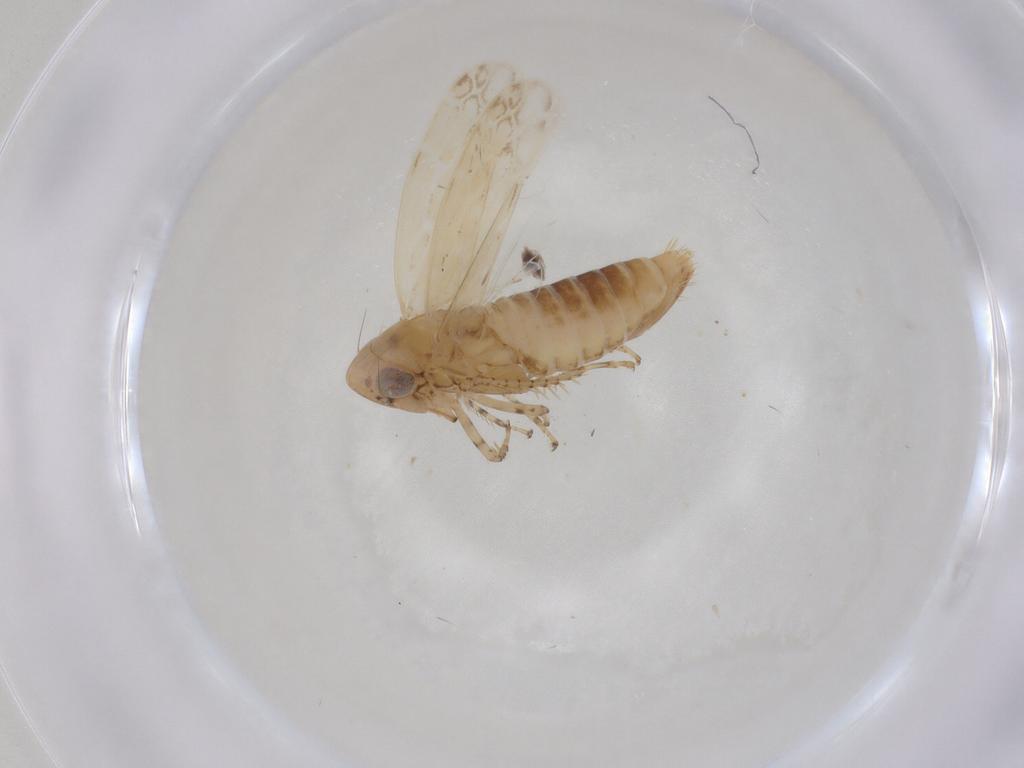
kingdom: Animalia
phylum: Arthropoda
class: Insecta
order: Hemiptera
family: Cicadellidae
